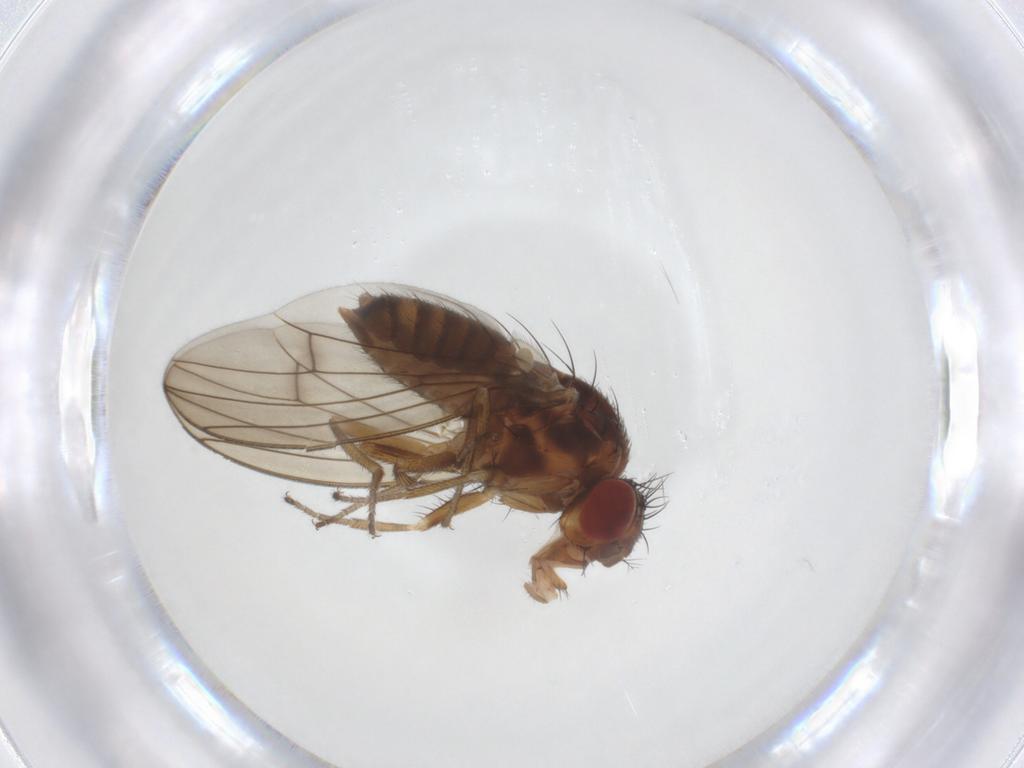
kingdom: Animalia
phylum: Arthropoda
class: Insecta
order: Diptera
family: Drosophilidae
